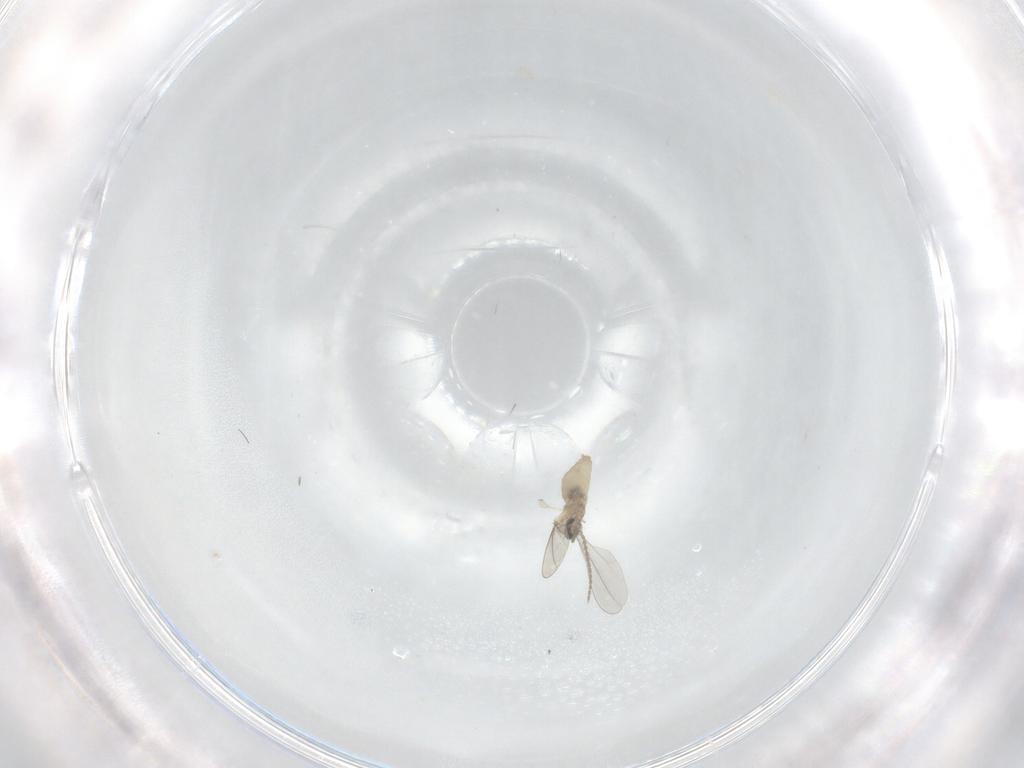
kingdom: Animalia
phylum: Arthropoda
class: Insecta
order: Diptera
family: Cecidomyiidae
